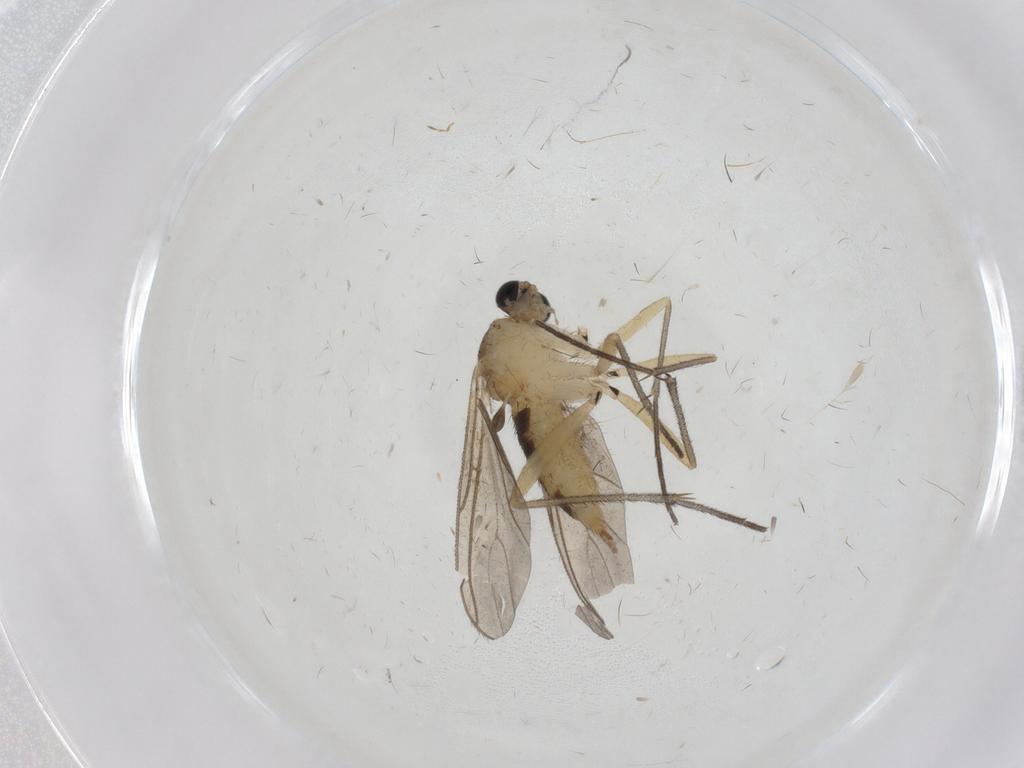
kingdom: Animalia
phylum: Arthropoda
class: Insecta
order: Diptera
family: Sciaridae
